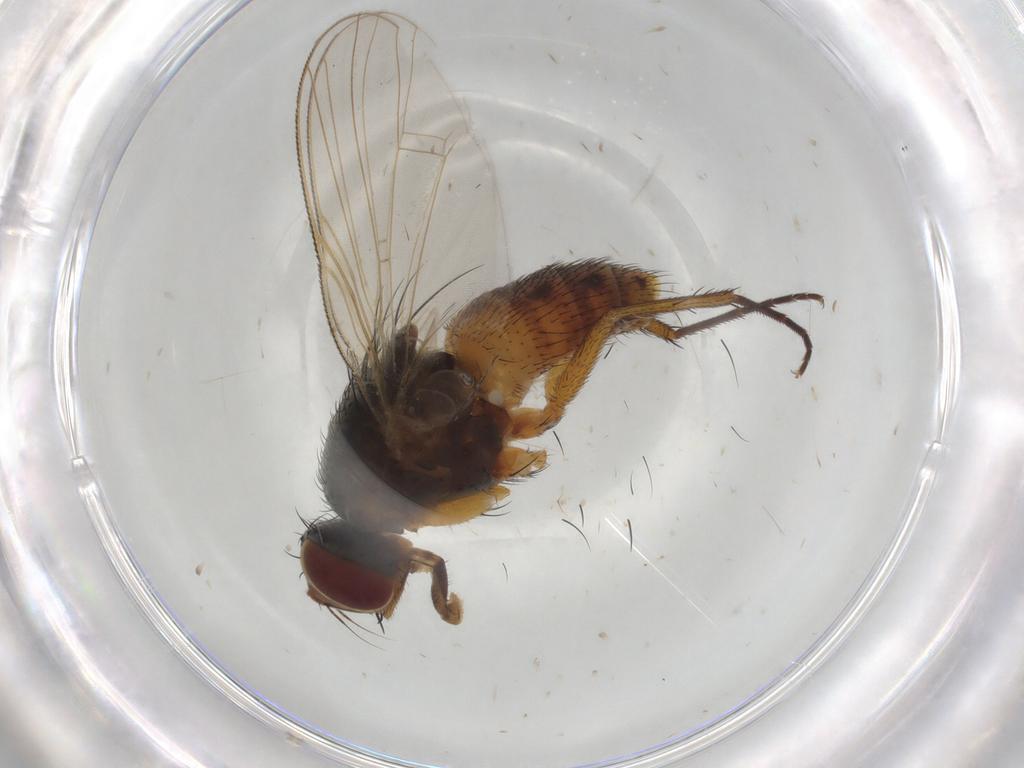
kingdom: Animalia
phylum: Arthropoda
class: Insecta
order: Diptera
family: Muscidae
